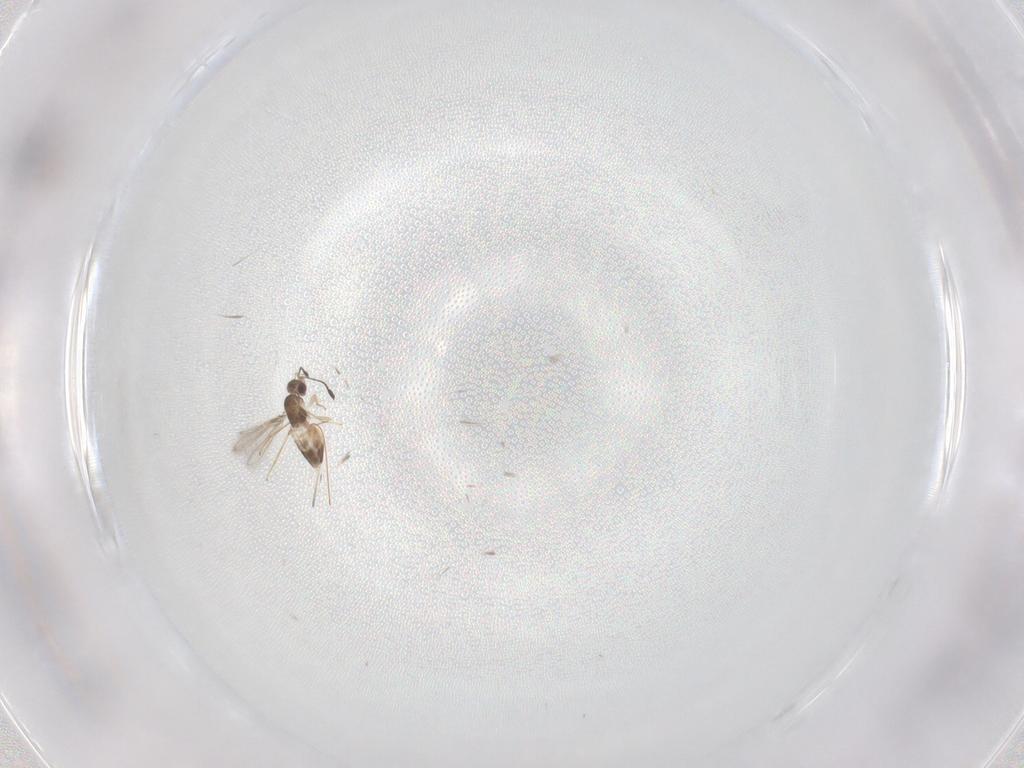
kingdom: Animalia
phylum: Arthropoda
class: Insecta
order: Hymenoptera
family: Mymaridae
